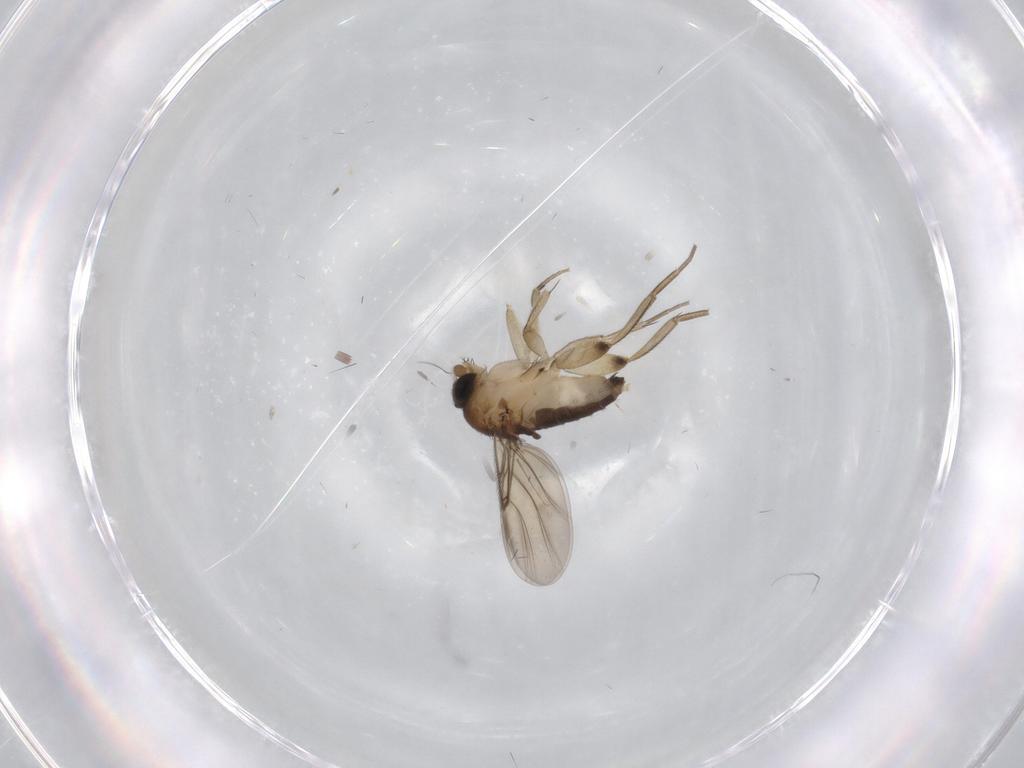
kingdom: Animalia
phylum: Arthropoda
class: Insecta
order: Diptera
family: Phoridae
